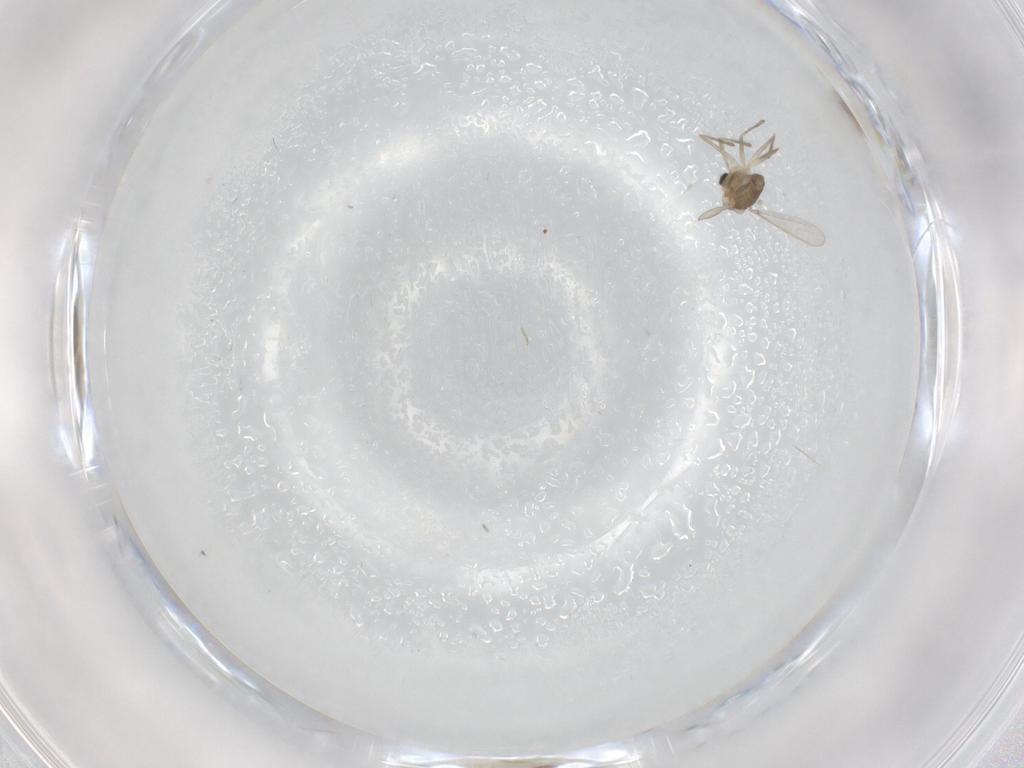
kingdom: Animalia
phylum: Arthropoda
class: Insecta
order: Diptera
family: Chironomidae
